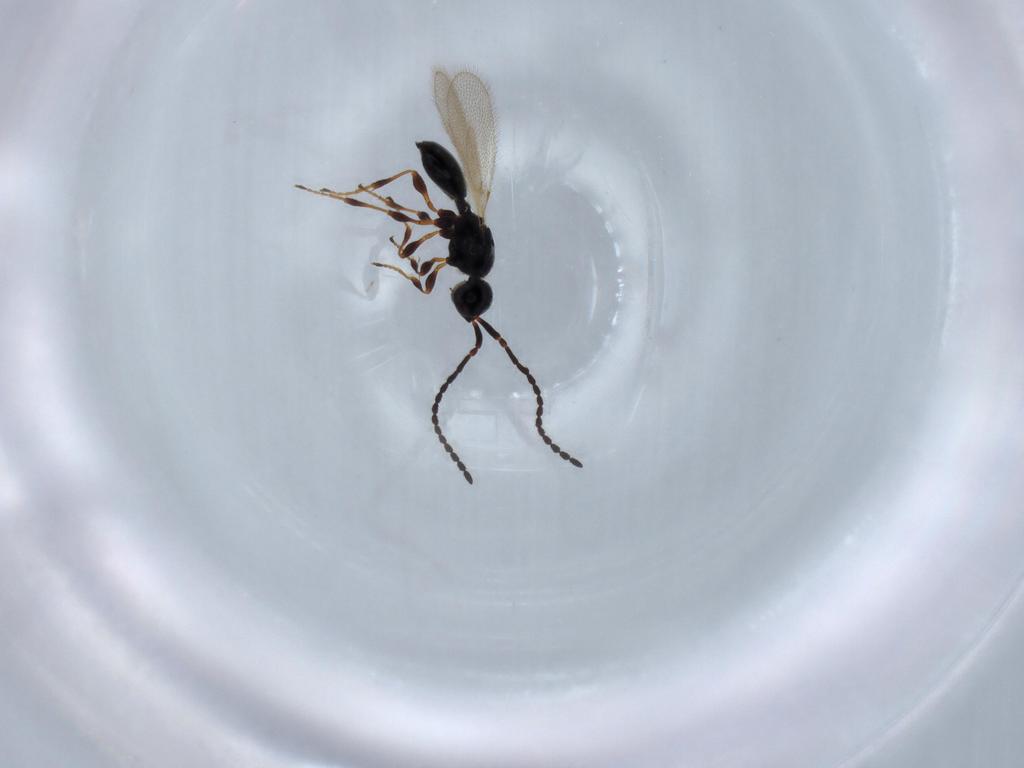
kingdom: Animalia
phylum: Arthropoda
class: Insecta
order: Hymenoptera
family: Diapriidae
